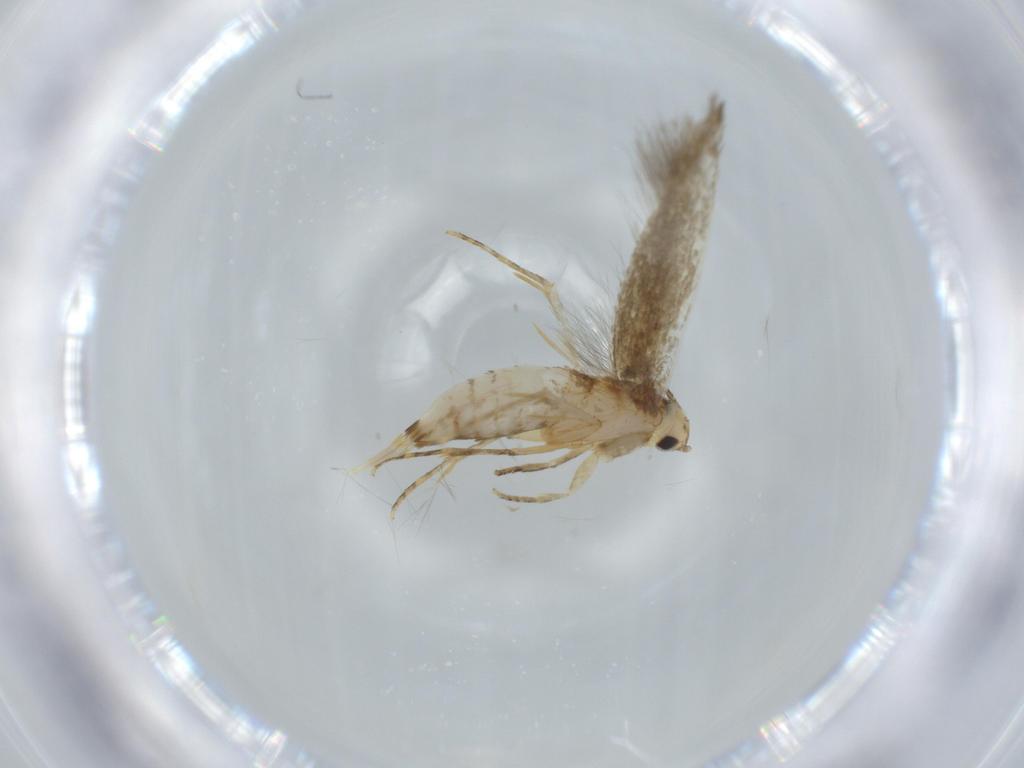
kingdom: Animalia
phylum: Arthropoda
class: Insecta
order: Lepidoptera
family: Tineidae
